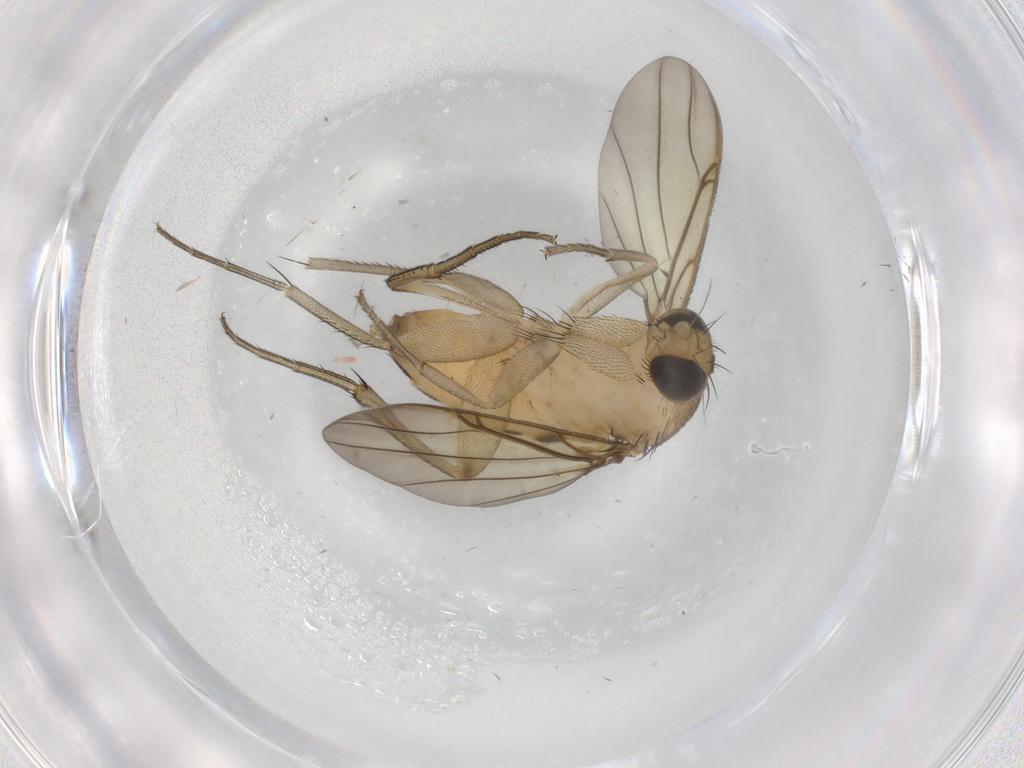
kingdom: Animalia
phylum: Arthropoda
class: Insecta
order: Diptera
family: Phoridae
